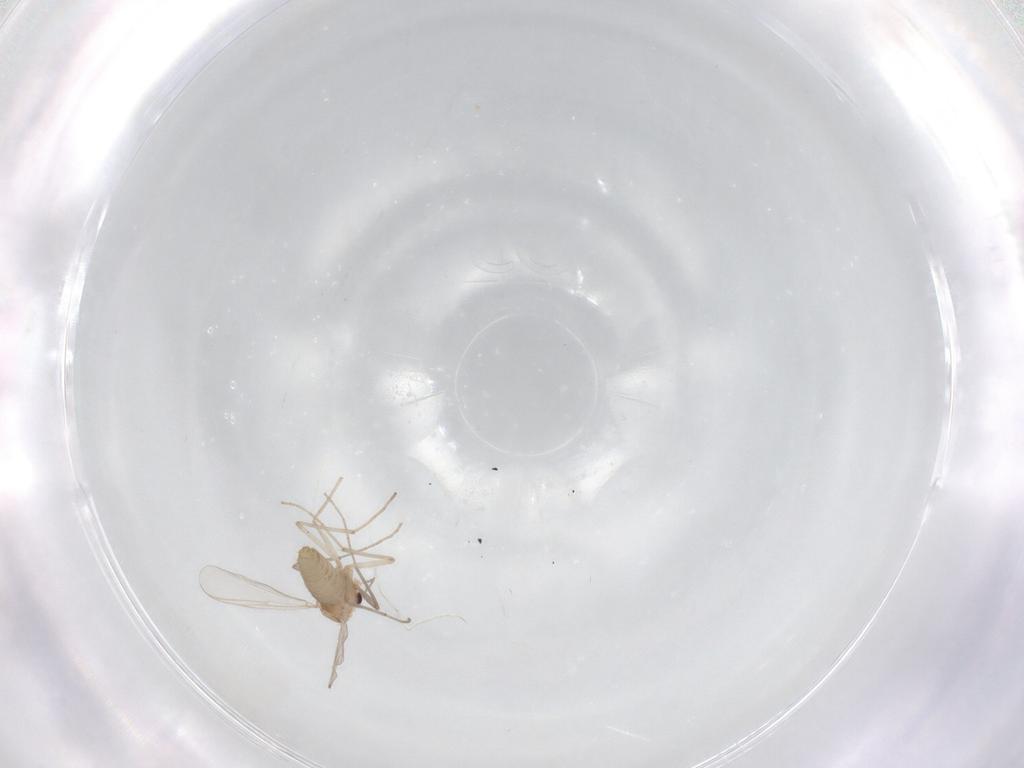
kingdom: Animalia
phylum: Arthropoda
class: Insecta
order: Diptera
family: Chironomidae
